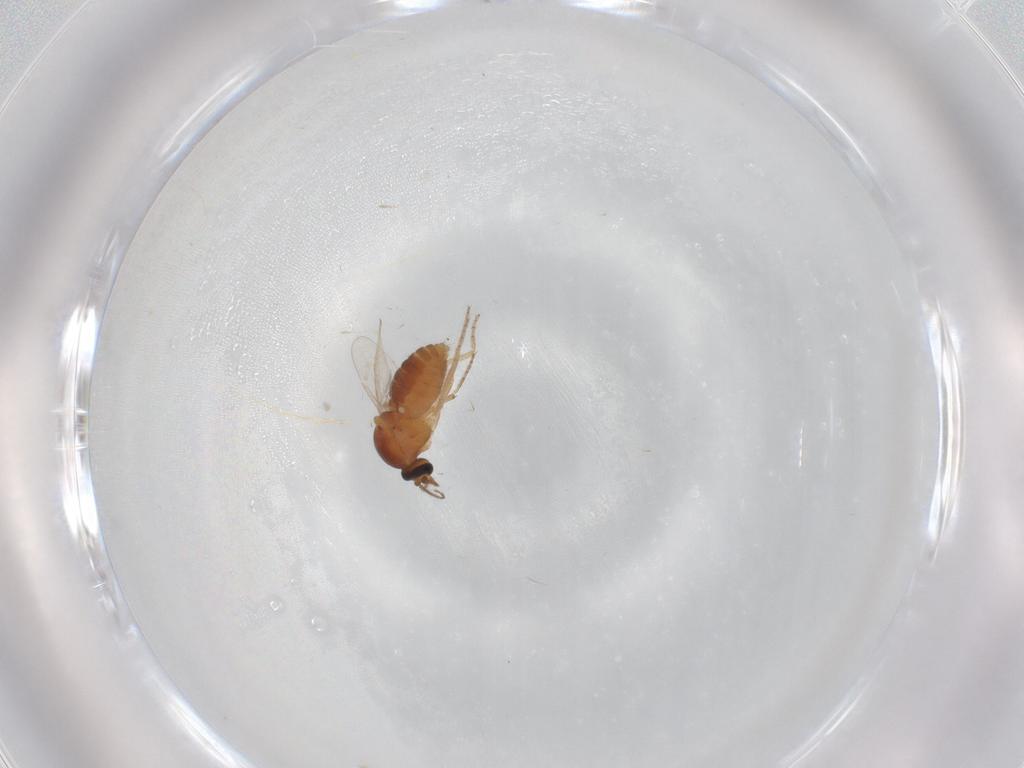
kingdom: Animalia
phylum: Arthropoda
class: Insecta
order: Diptera
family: Ceratopogonidae
